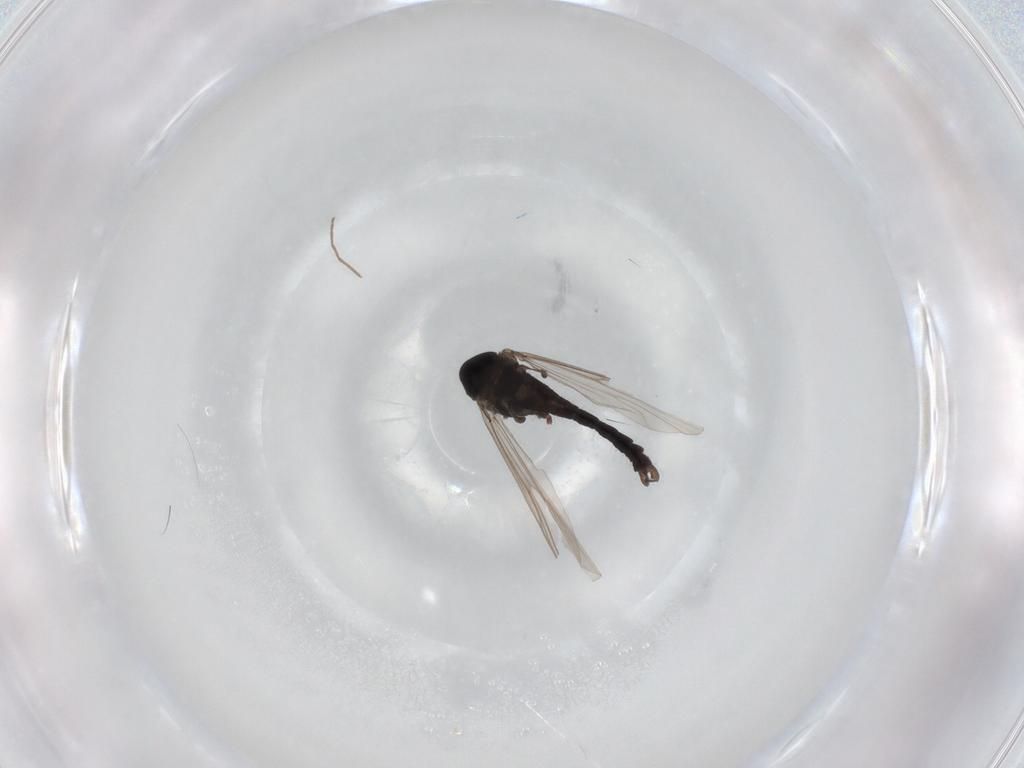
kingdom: Animalia
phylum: Arthropoda
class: Insecta
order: Diptera
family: Chironomidae
